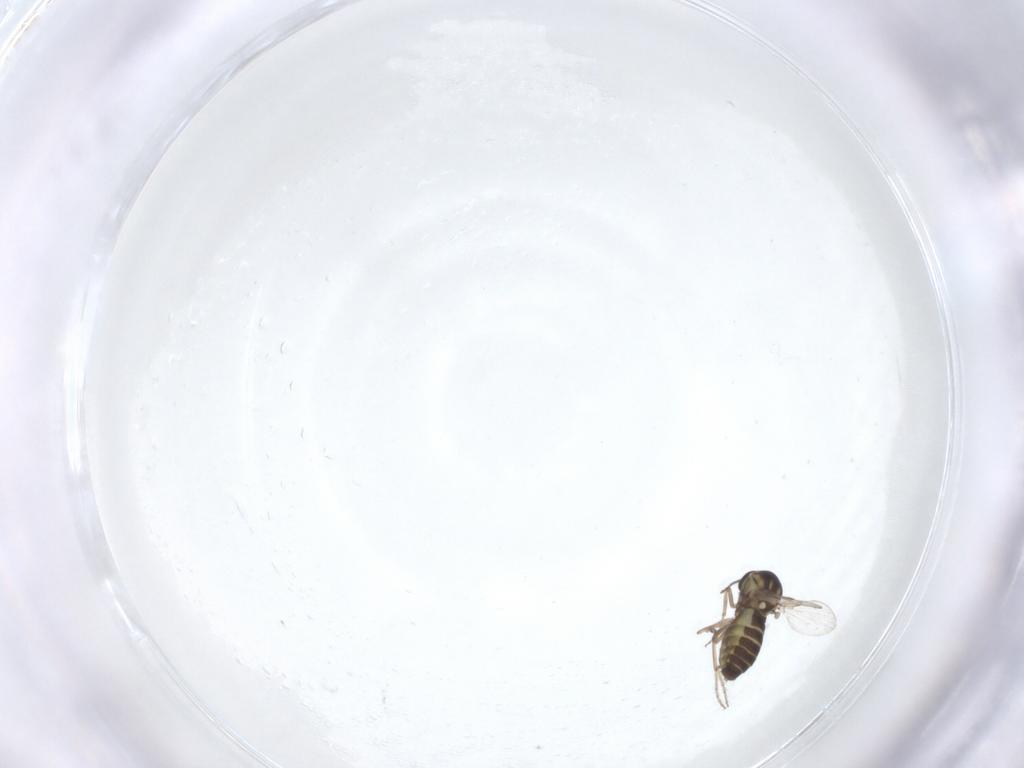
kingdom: Animalia
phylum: Arthropoda
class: Insecta
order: Diptera
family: Ceratopogonidae
